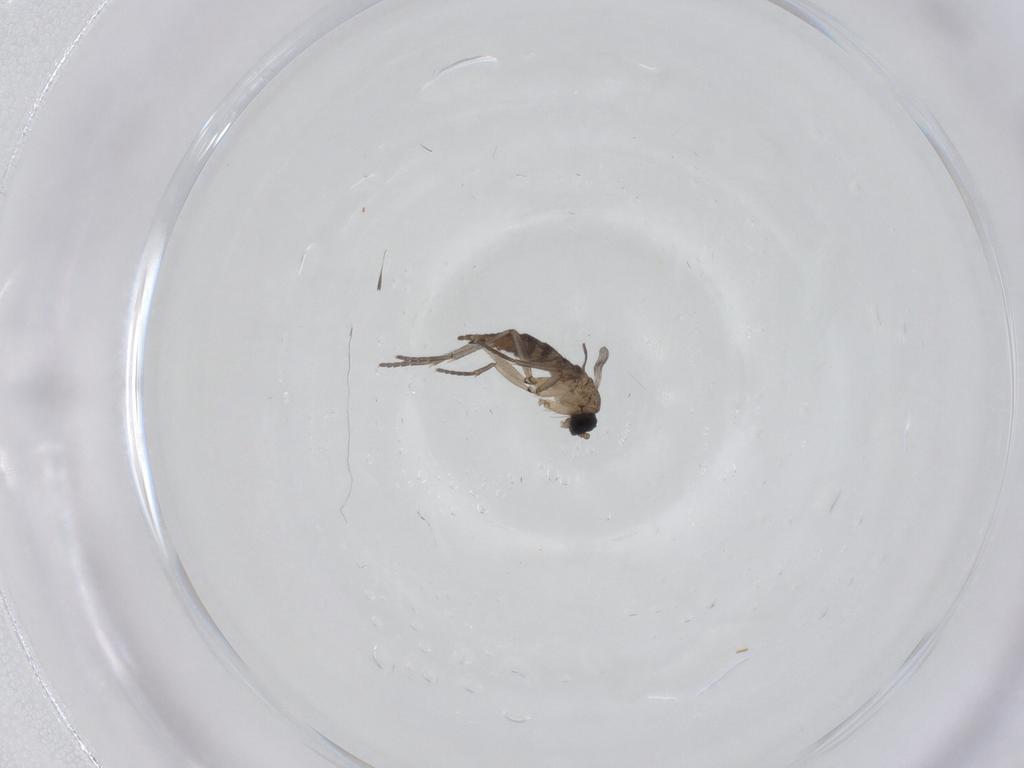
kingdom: Animalia
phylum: Arthropoda
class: Insecta
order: Diptera
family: Sciaridae
